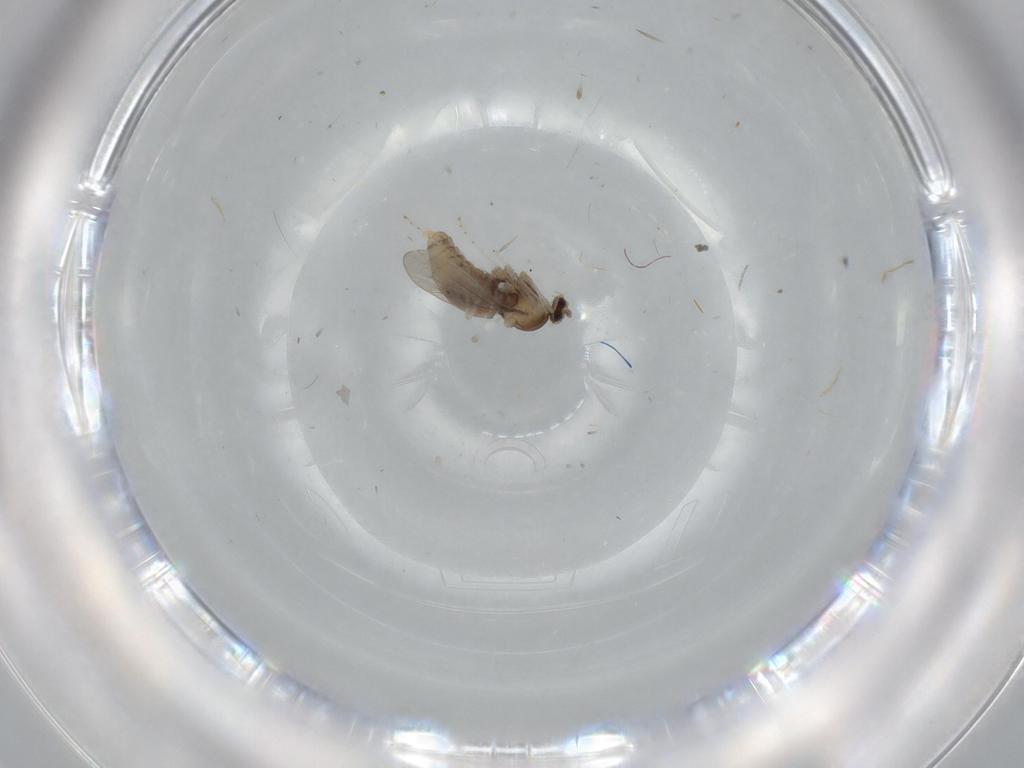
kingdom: Animalia
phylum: Arthropoda
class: Insecta
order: Diptera
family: Cecidomyiidae
